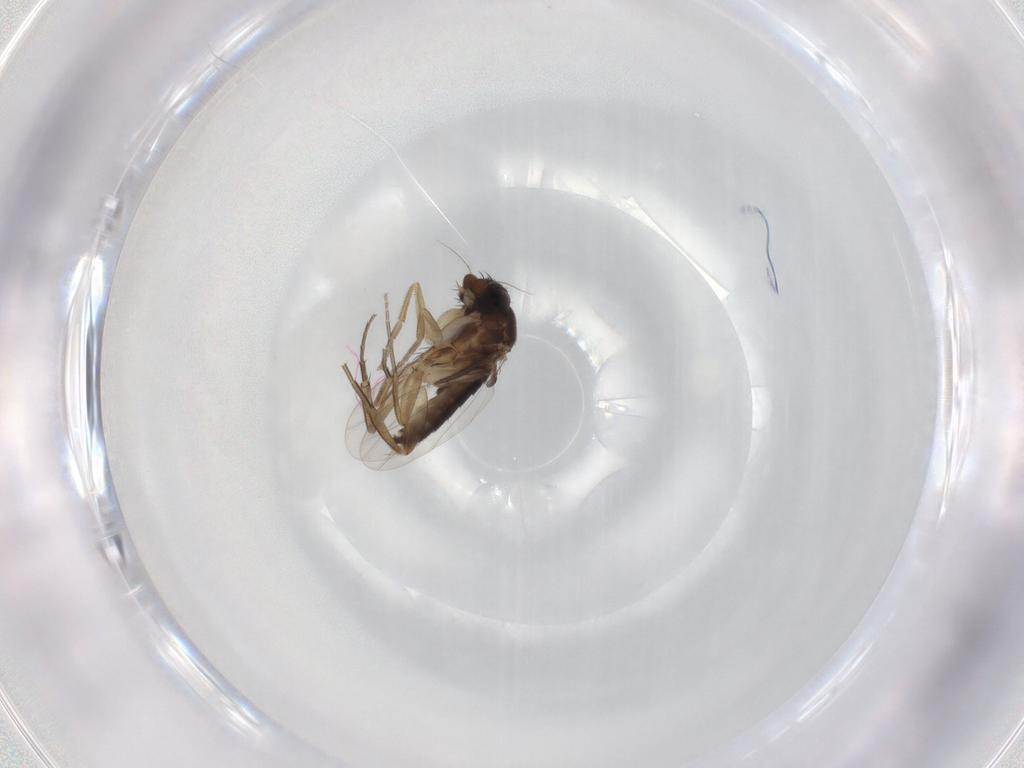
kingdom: Animalia
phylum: Arthropoda
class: Insecta
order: Diptera
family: Phoridae
